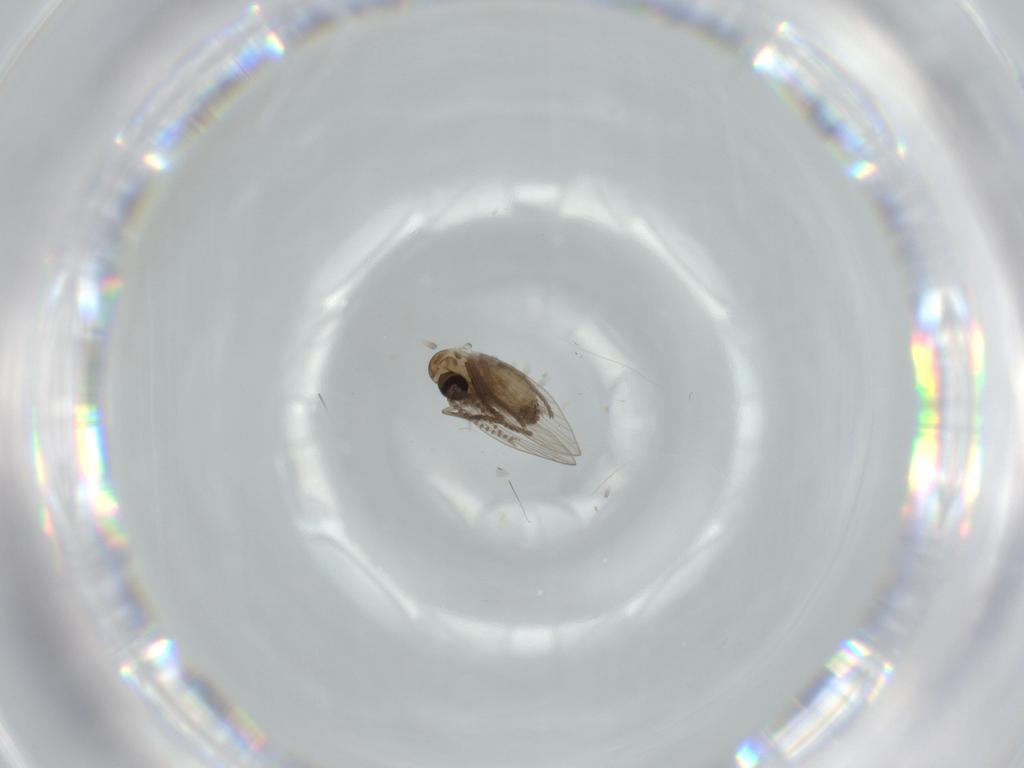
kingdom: Animalia
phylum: Arthropoda
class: Insecta
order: Diptera
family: Psychodidae
